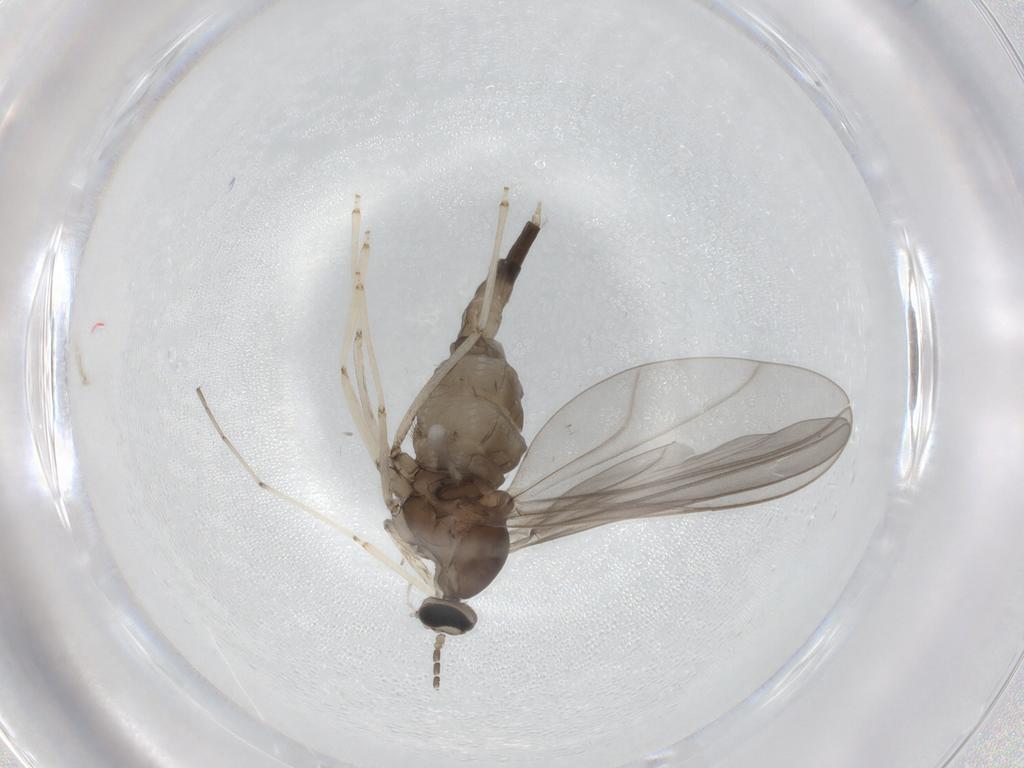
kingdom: Animalia
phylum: Arthropoda
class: Insecta
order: Diptera
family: Cecidomyiidae
